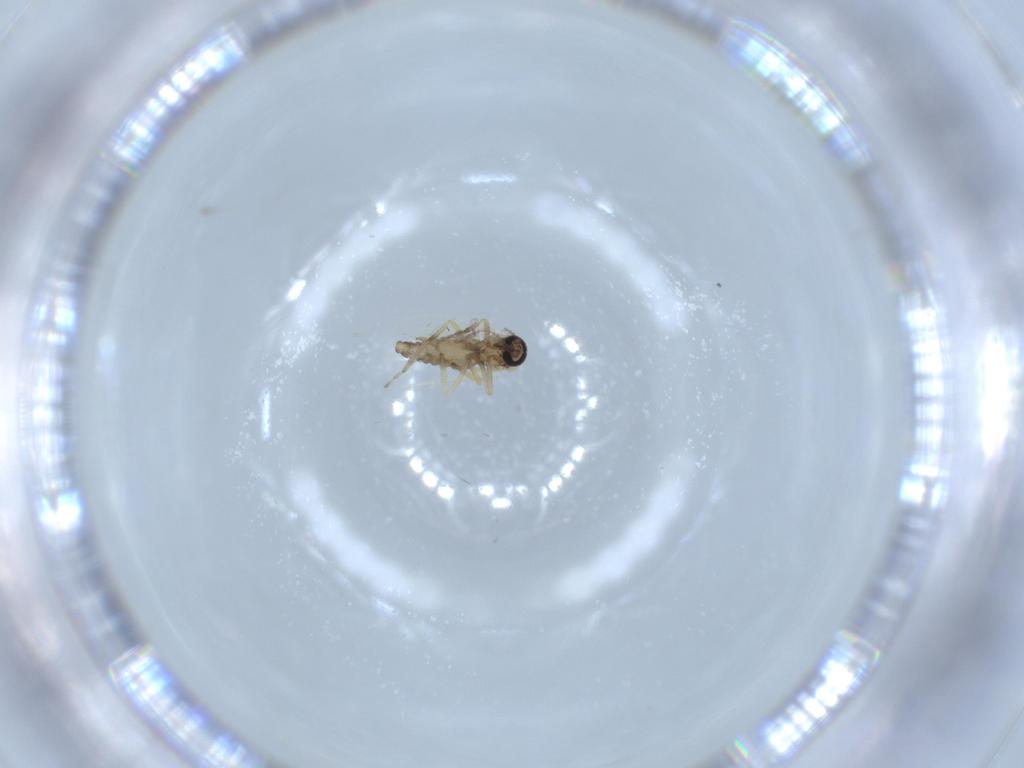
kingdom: Animalia
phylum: Arthropoda
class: Insecta
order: Diptera
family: Ceratopogonidae
